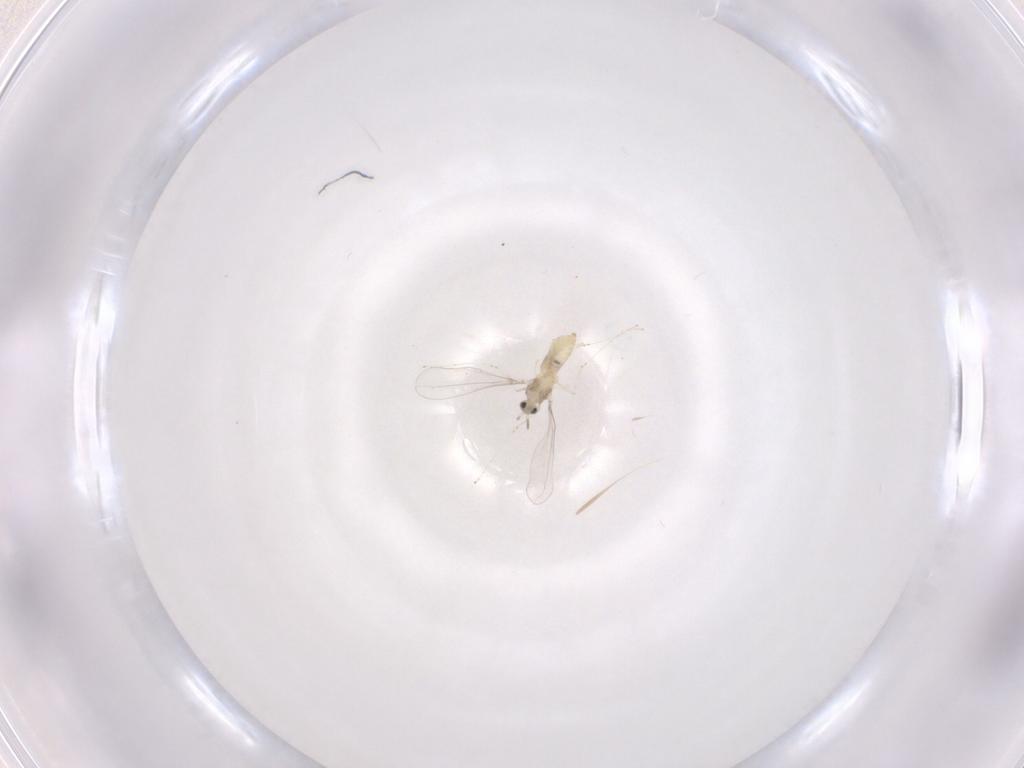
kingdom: Animalia
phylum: Arthropoda
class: Insecta
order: Diptera
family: Cecidomyiidae
